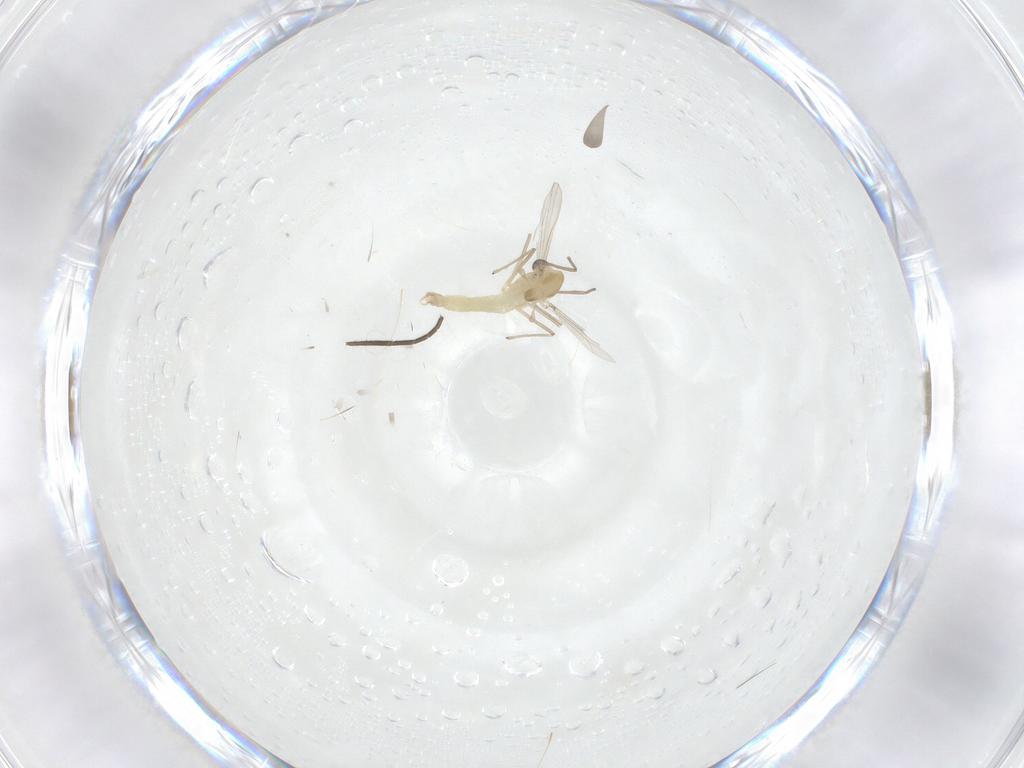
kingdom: Animalia
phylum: Arthropoda
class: Insecta
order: Diptera
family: Chironomidae
